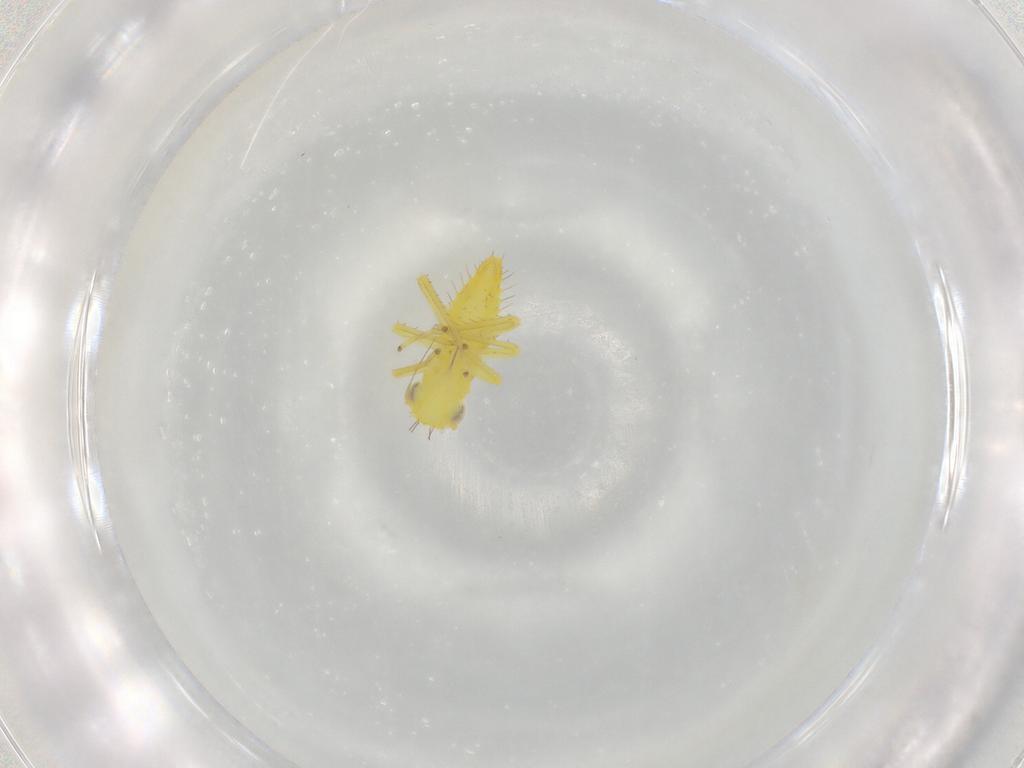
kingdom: Animalia
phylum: Arthropoda
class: Insecta
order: Hemiptera
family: Cicadellidae
